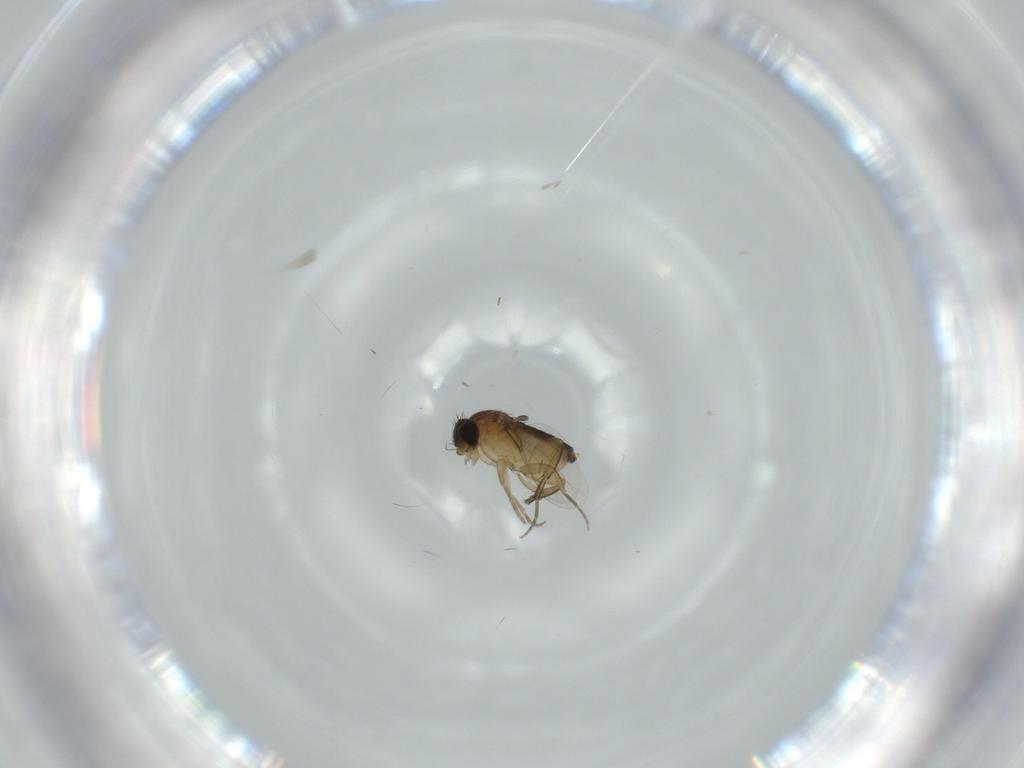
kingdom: Animalia
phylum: Arthropoda
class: Insecta
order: Diptera
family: Phoridae
